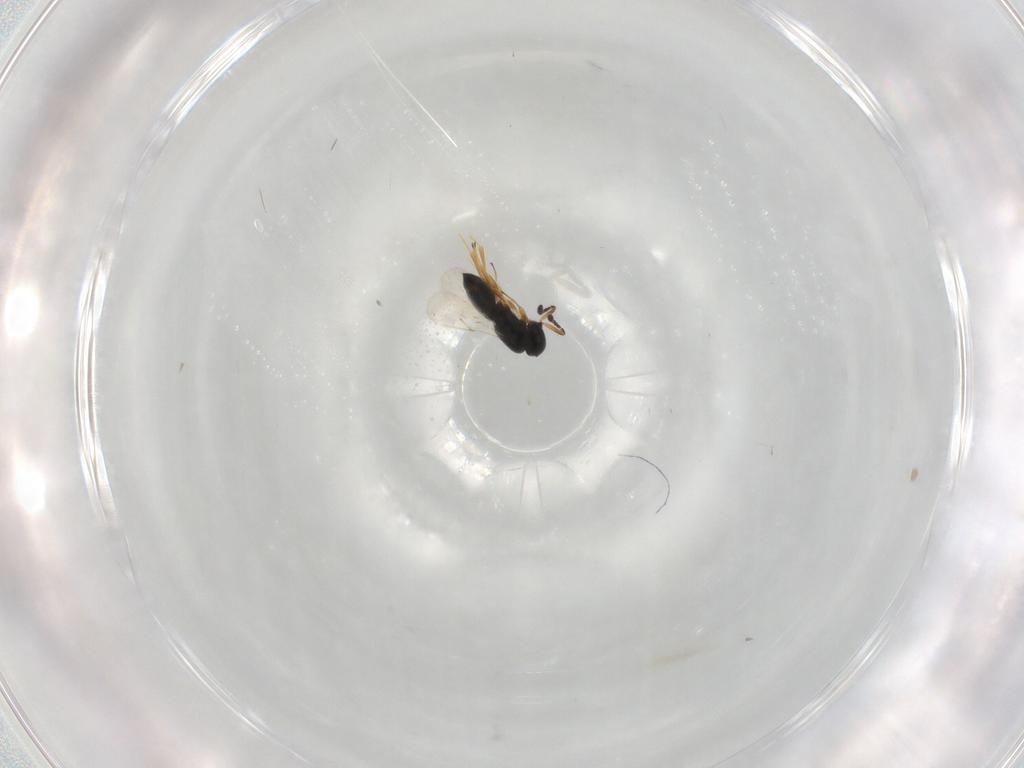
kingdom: Animalia
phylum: Arthropoda
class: Insecta
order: Hymenoptera
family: Scelionidae
